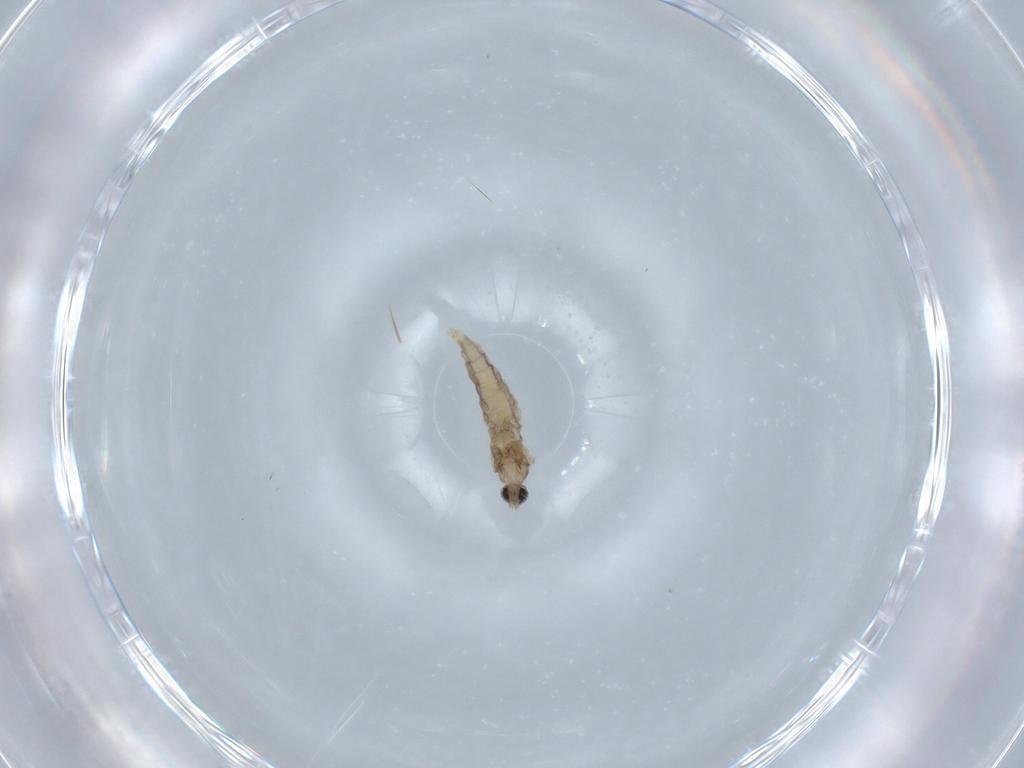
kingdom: Animalia
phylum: Arthropoda
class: Insecta
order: Diptera
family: Cecidomyiidae
